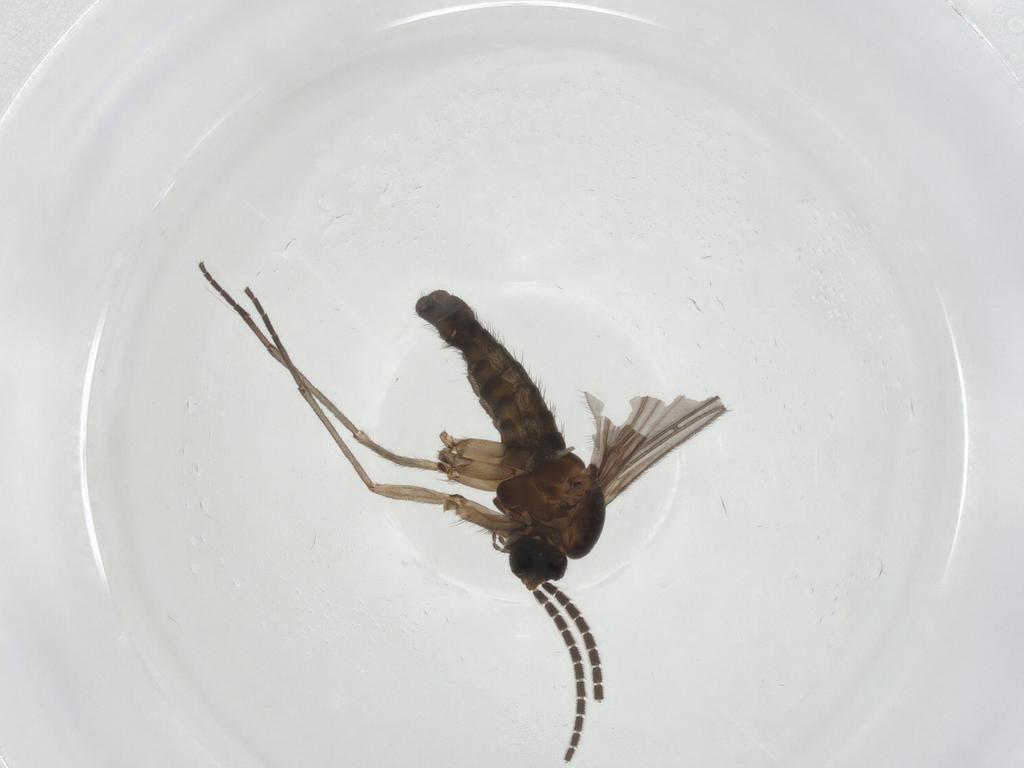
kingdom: Animalia
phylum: Arthropoda
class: Insecta
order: Diptera
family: Sciaridae
